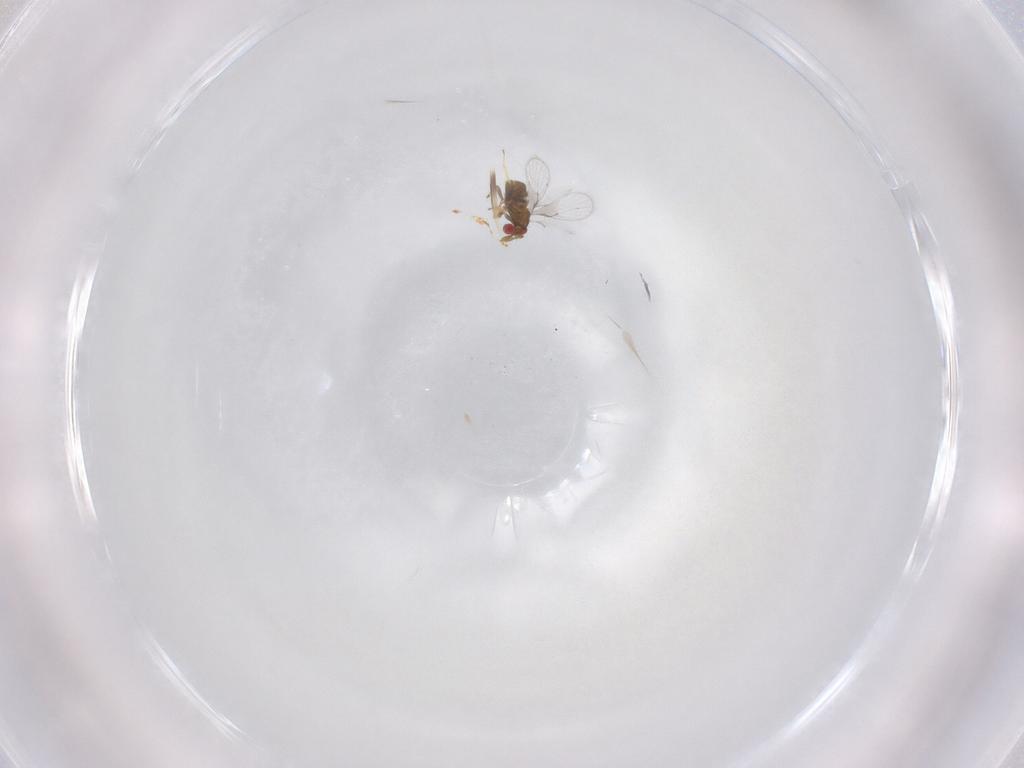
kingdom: Animalia
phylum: Arthropoda
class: Insecta
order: Hymenoptera
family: Trichogrammatidae
